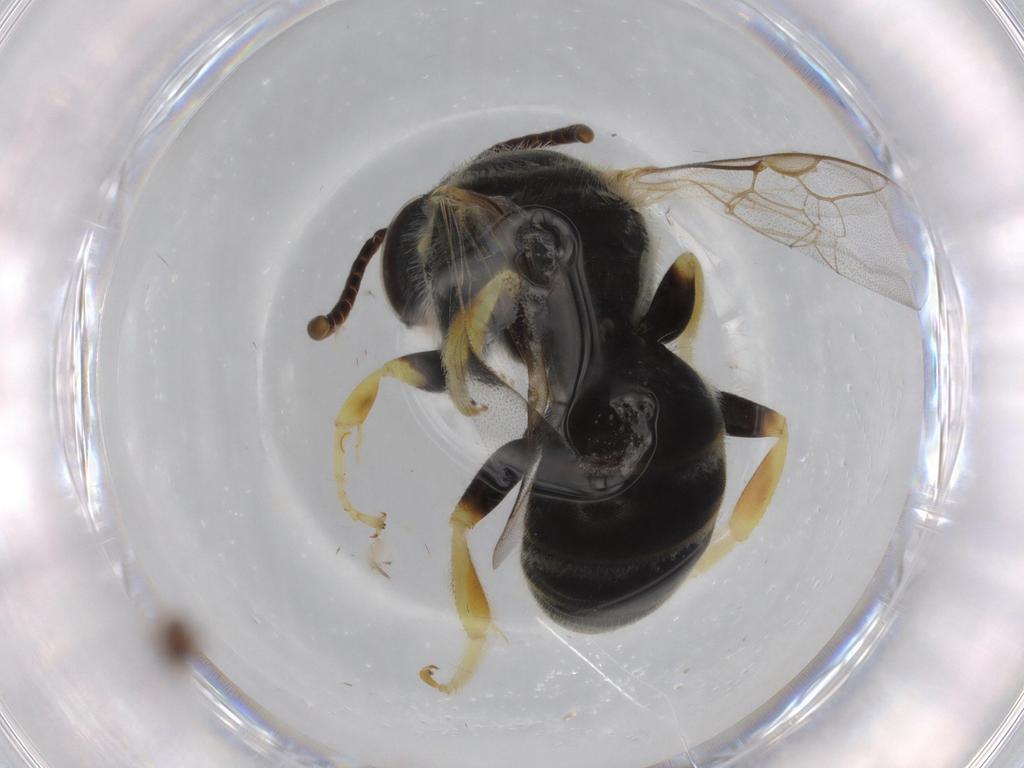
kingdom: Animalia
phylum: Arthropoda
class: Insecta
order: Hymenoptera
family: Halictidae
